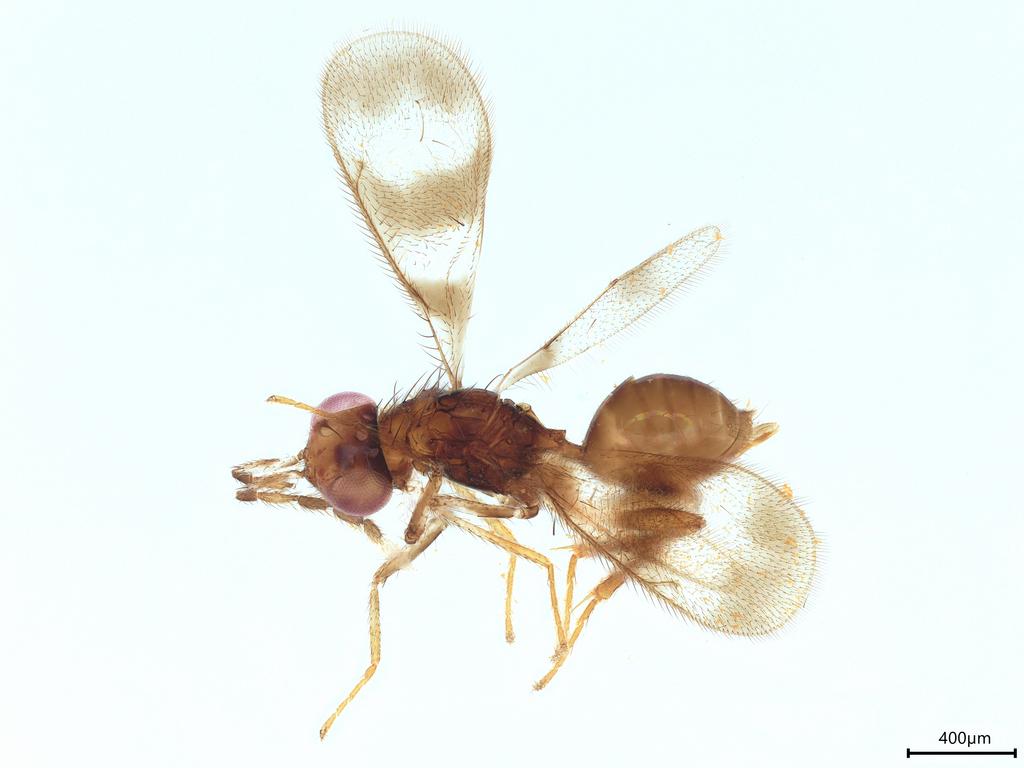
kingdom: Animalia
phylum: Arthropoda
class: Insecta
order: Hymenoptera
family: Eulophidae
